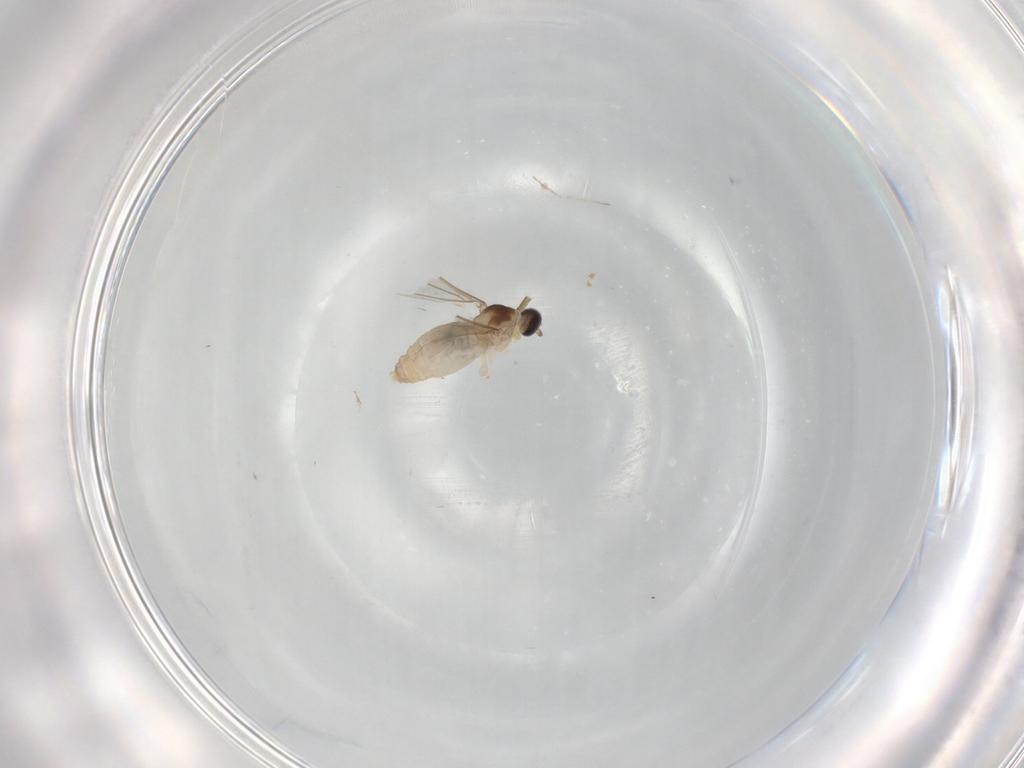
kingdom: Animalia
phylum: Arthropoda
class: Insecta
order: Diptera
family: Cecidomyiidae
